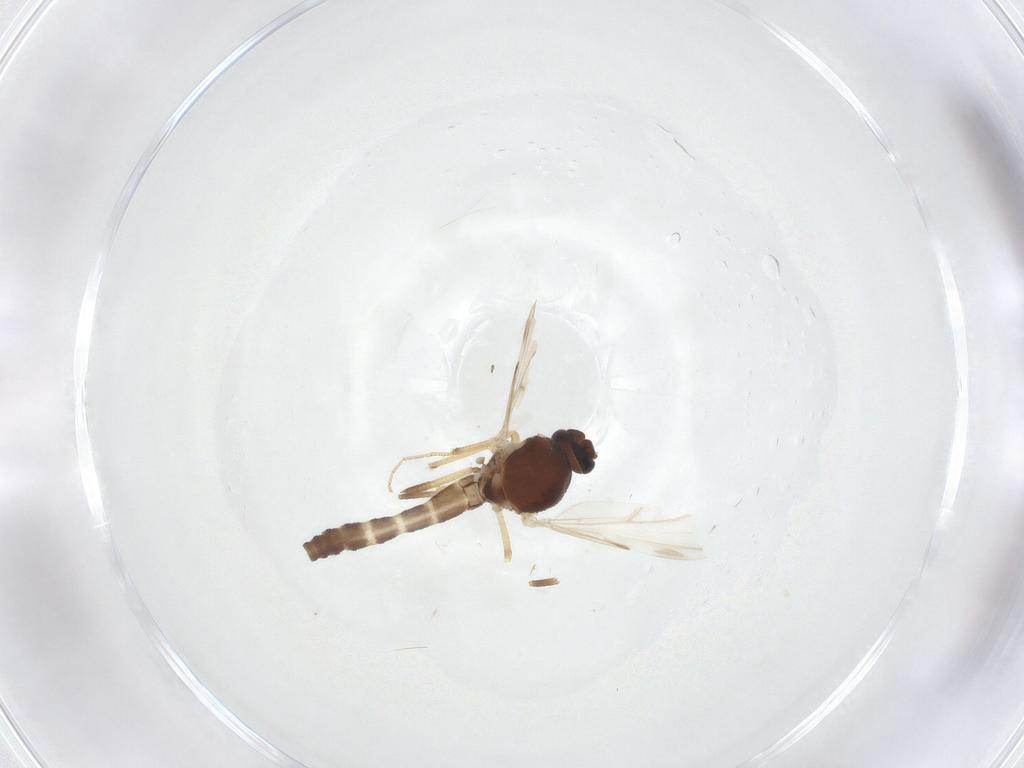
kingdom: Animalia
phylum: Arthropoda
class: Insecta
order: Diptera
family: Ceratopogonidae
